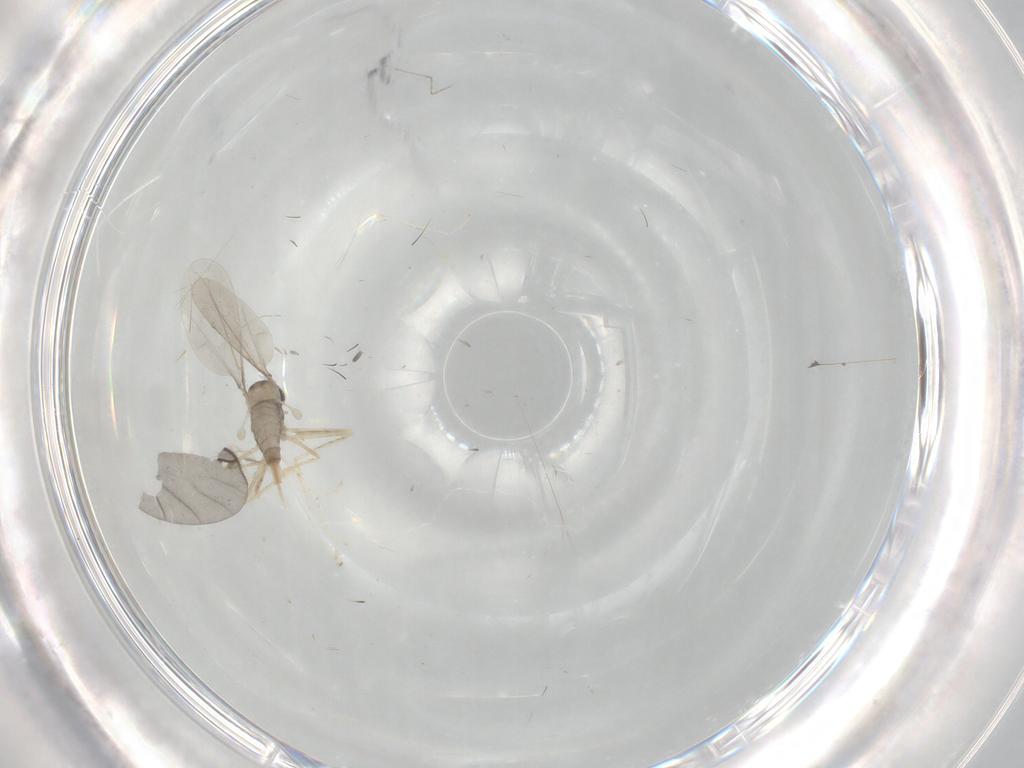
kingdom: Animalia
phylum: Arthropoda
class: Insecta
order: Diptera
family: Cecidomyiidae
